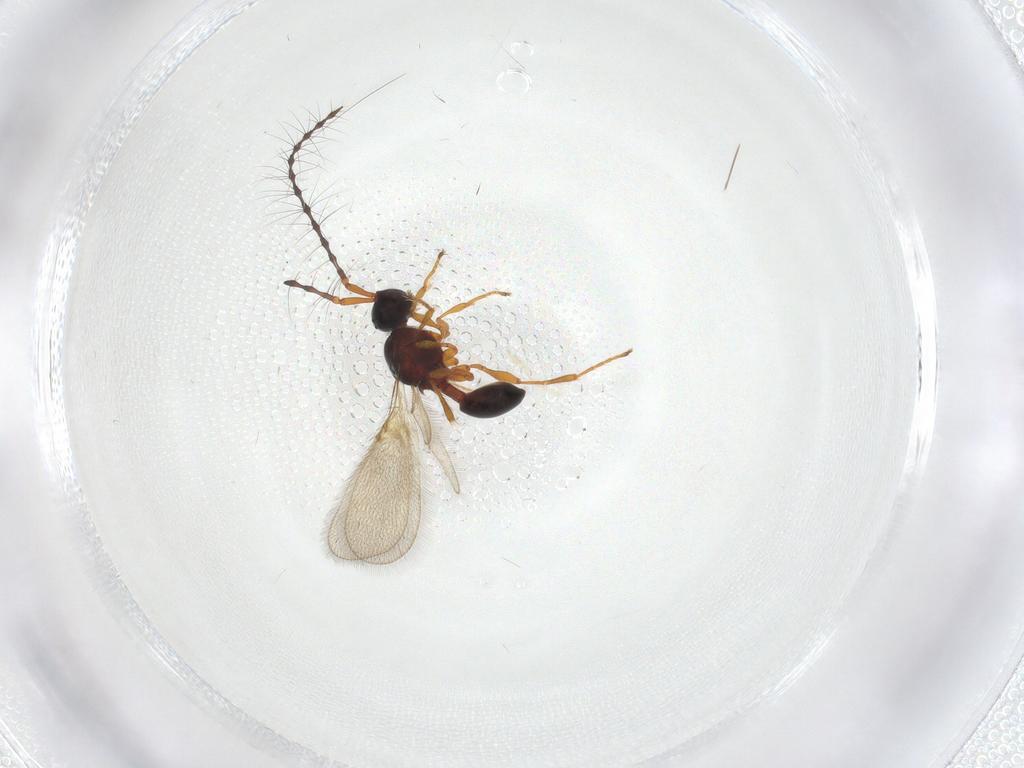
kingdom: Animalia
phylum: Arthropoda
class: Insecta
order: Hymenoptera
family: Diapriidae
